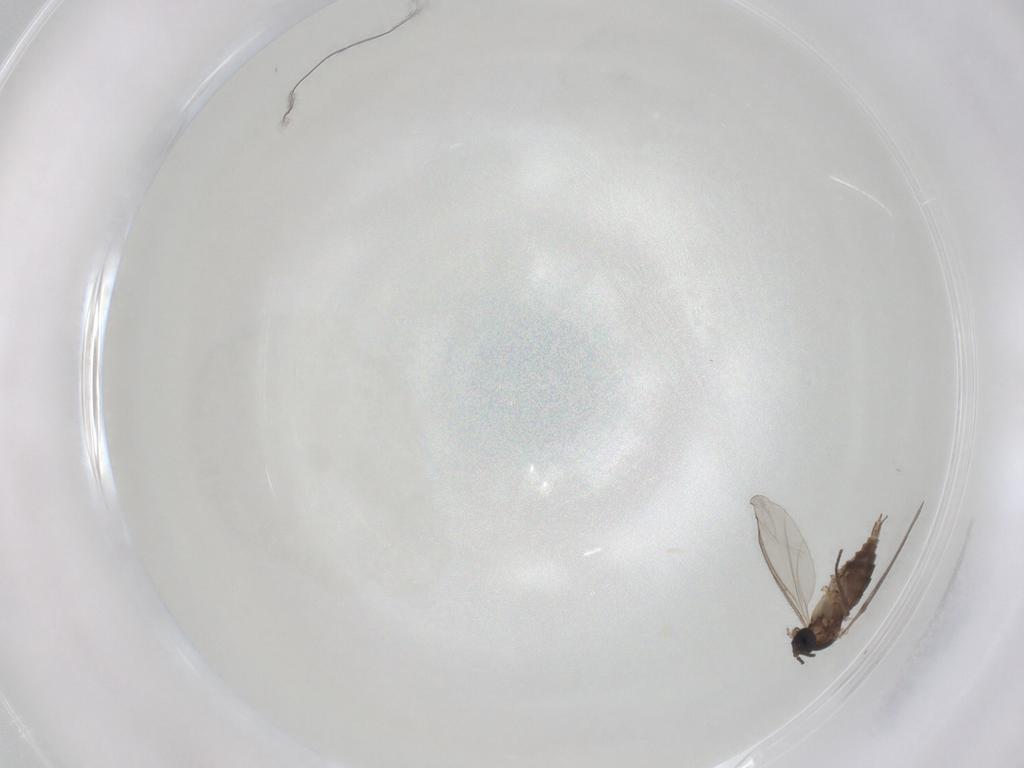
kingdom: Animalia
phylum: Arthropoda
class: Insecta
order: Diptera
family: Sciaridae
